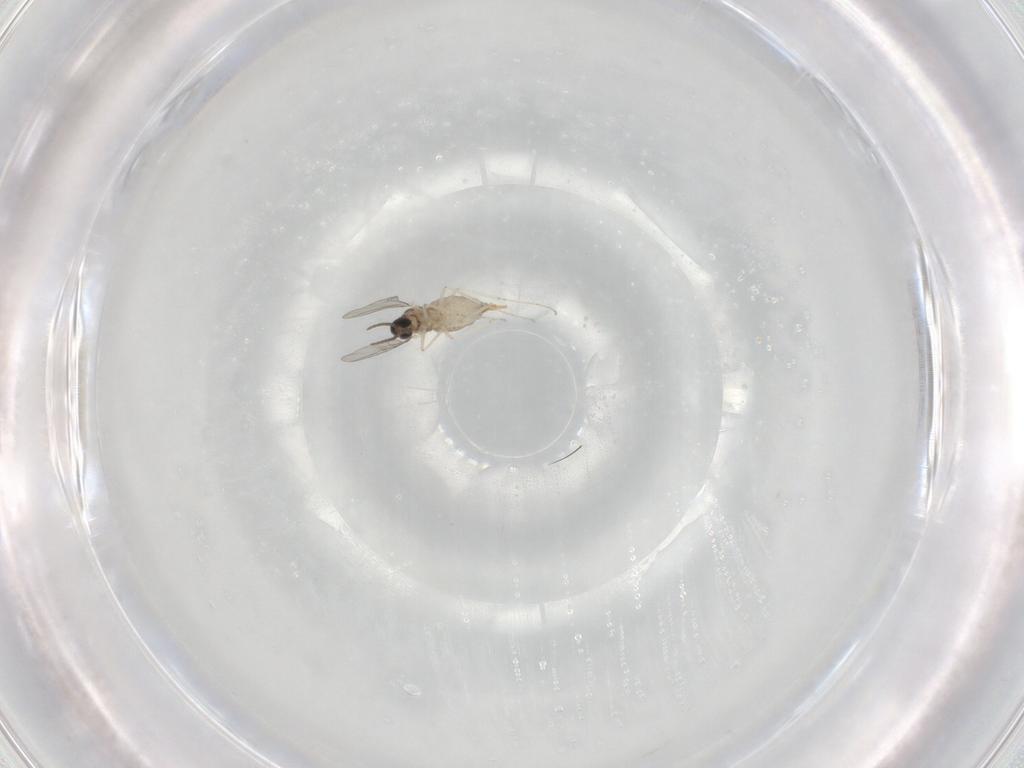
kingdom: Animalia
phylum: Arthropoda
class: Insecta
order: Diptera
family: Cecidomyiidae
